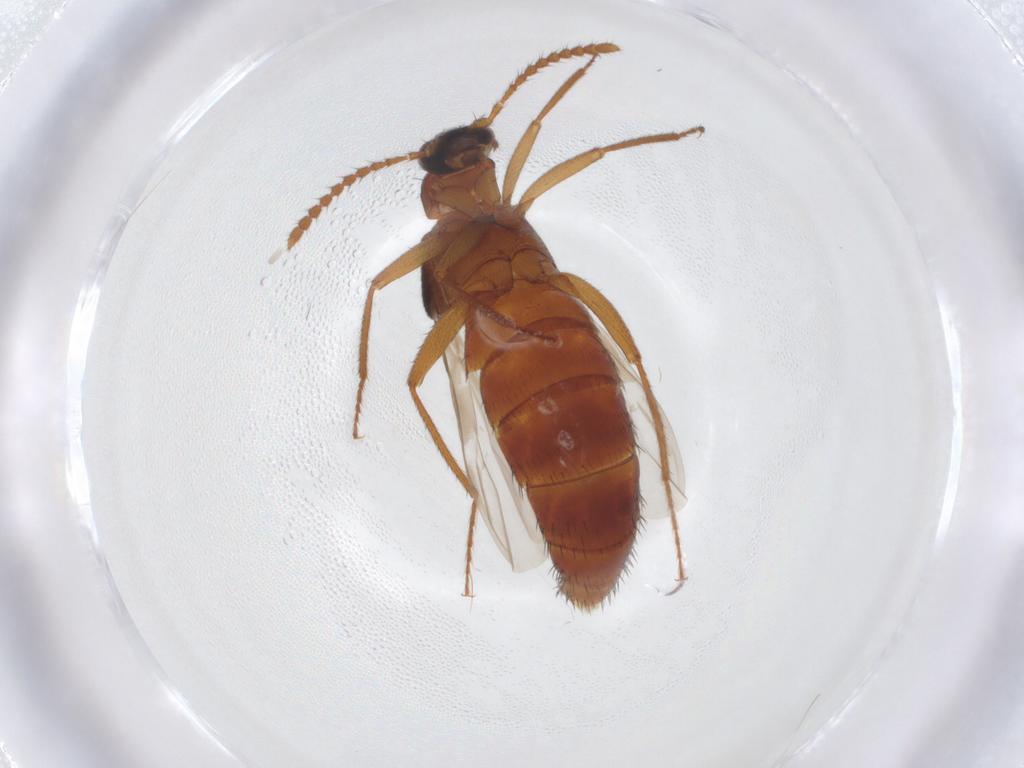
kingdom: Animalia
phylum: Arthropoda
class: Insecta
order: Coleoptera
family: Staphylinidae
